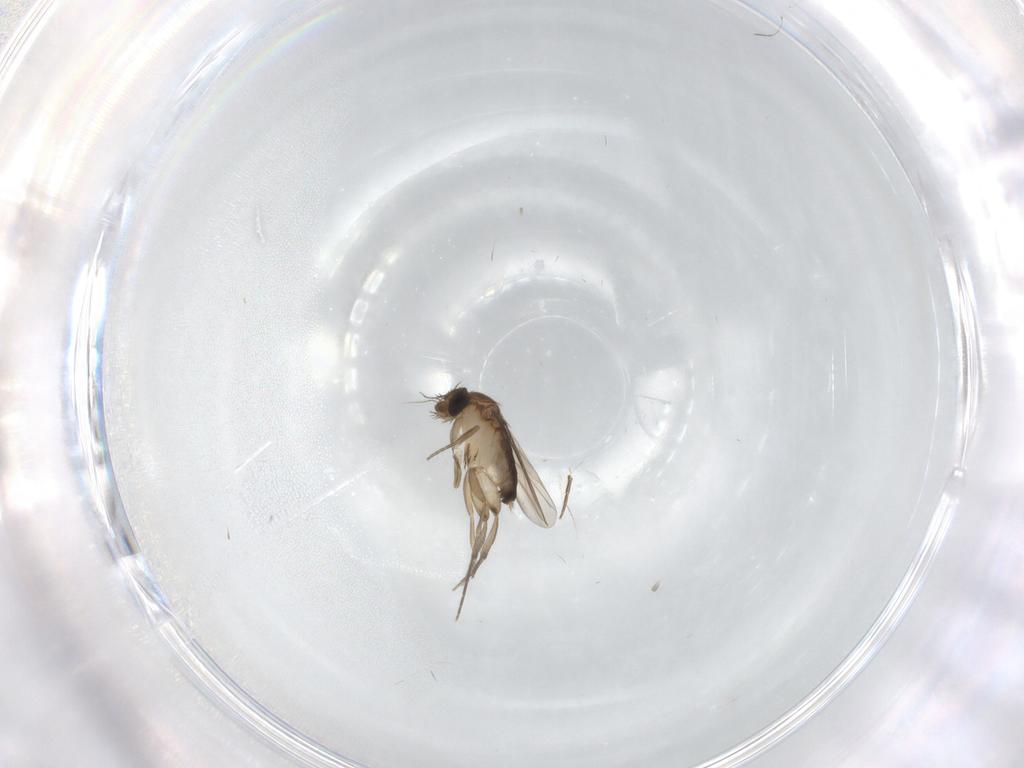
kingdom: Animalia
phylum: Arthropoda
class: Insecta
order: Diptera
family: Phoridae
